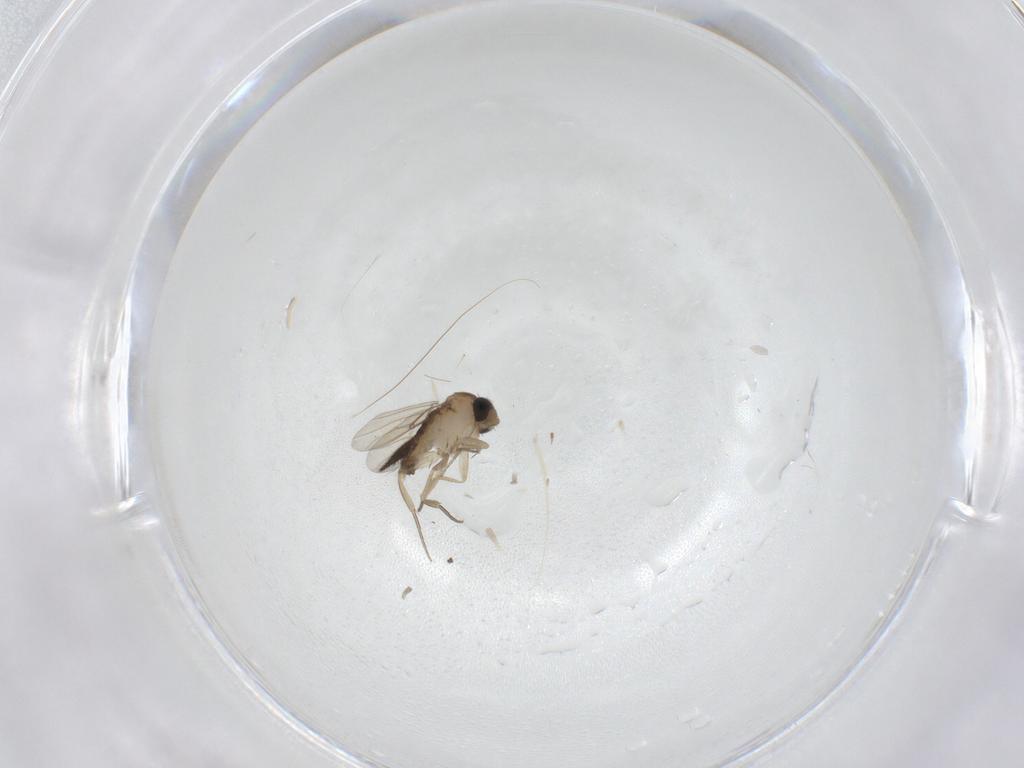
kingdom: Animalia
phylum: Arthropoda
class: Insecta
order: Diptera
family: Phoridae
